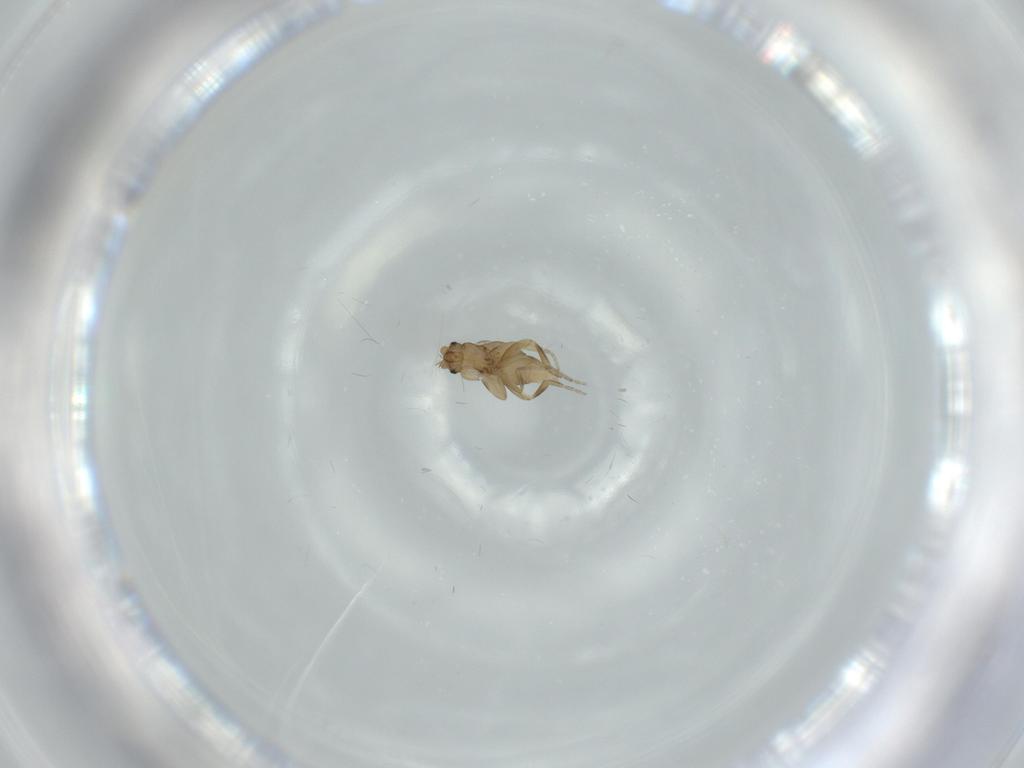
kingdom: Animalia
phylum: Arthropoda
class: Insecta
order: Diptera
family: Phoridae
